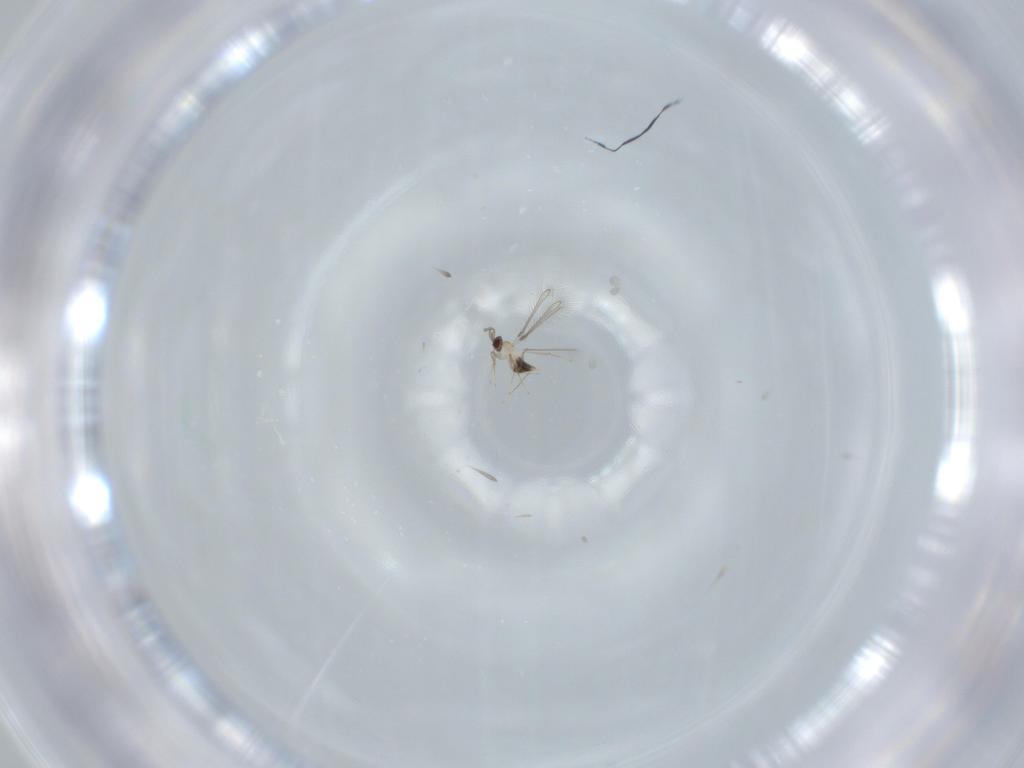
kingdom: Animalia
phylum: Arthropoda
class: Insecta
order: Hymenoptera
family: Mymaridae
